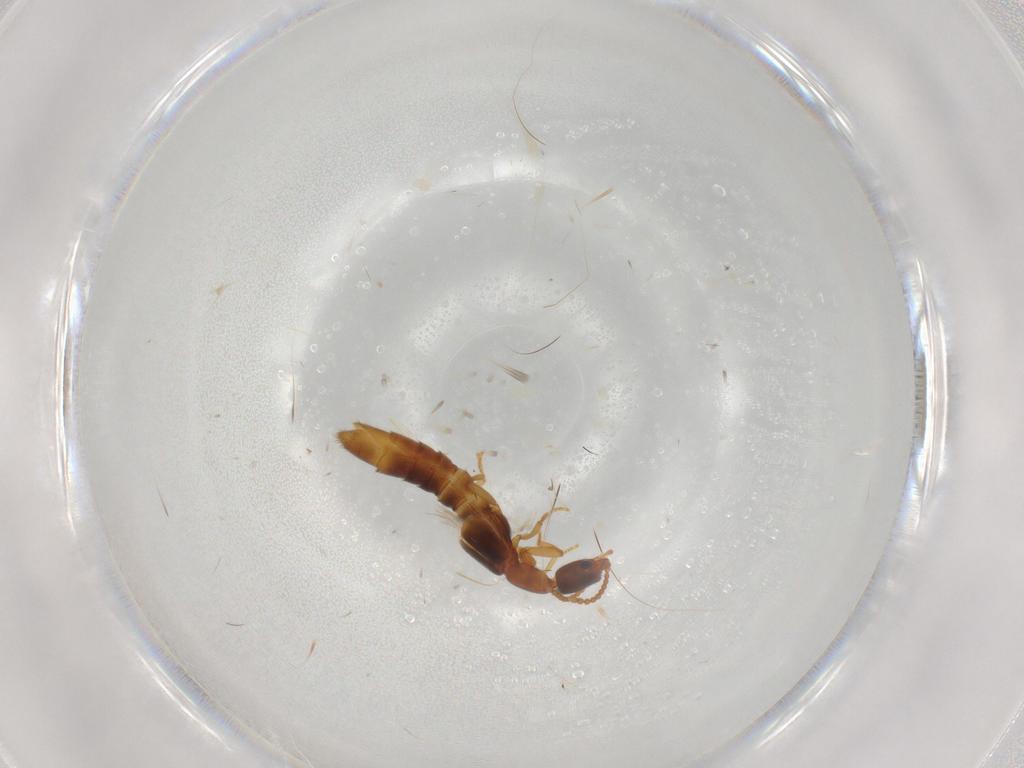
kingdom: Animalia
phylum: Arthropoda
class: Insecta
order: Coleoptera
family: Staphylinidae
